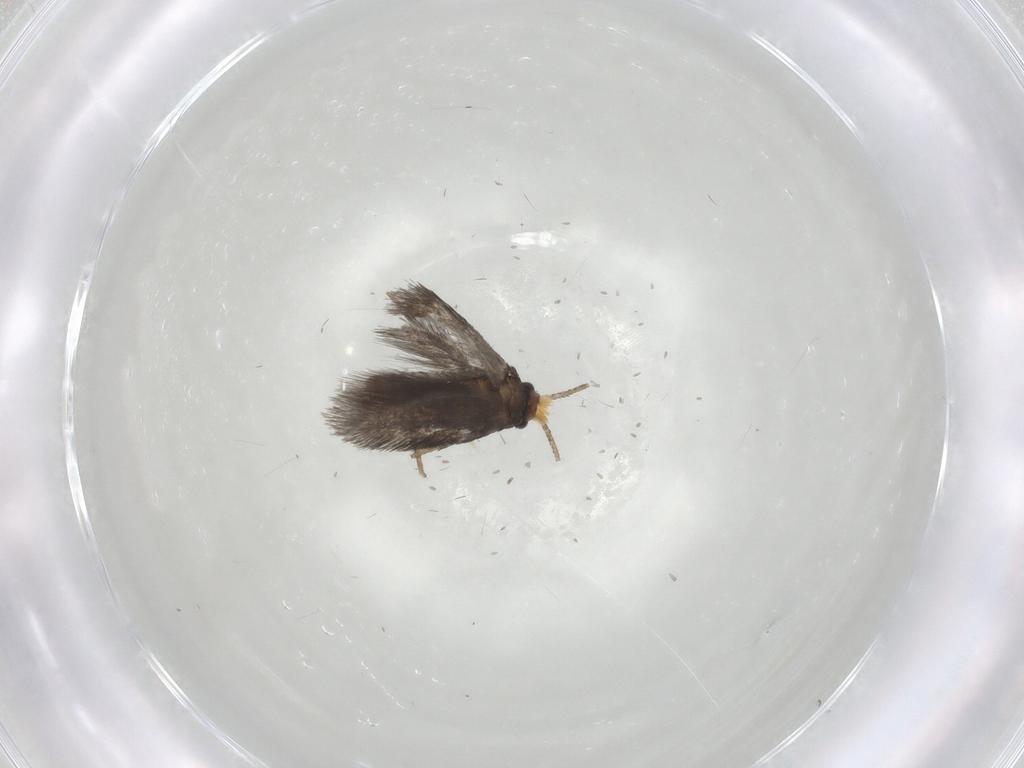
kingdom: Animalia
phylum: Arthropoda
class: Insecta
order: Lepidoptera
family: Nepticulidae
